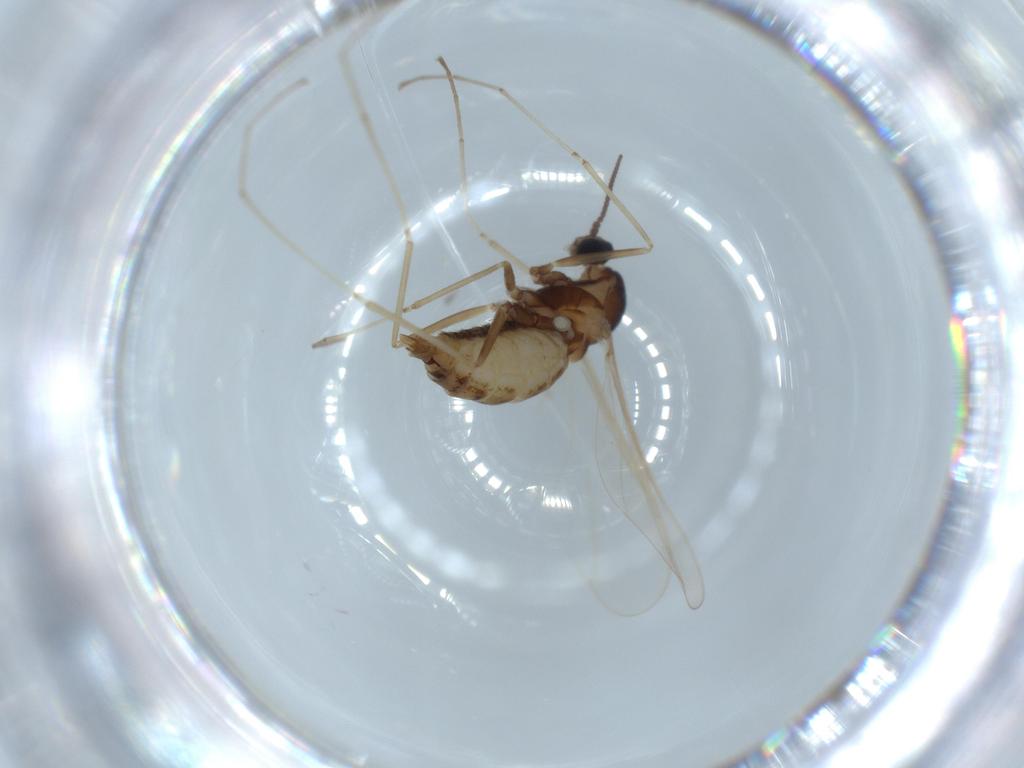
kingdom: Animalia
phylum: Arthropoda
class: Insecta
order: Diptera
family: Cecidomyiidae
